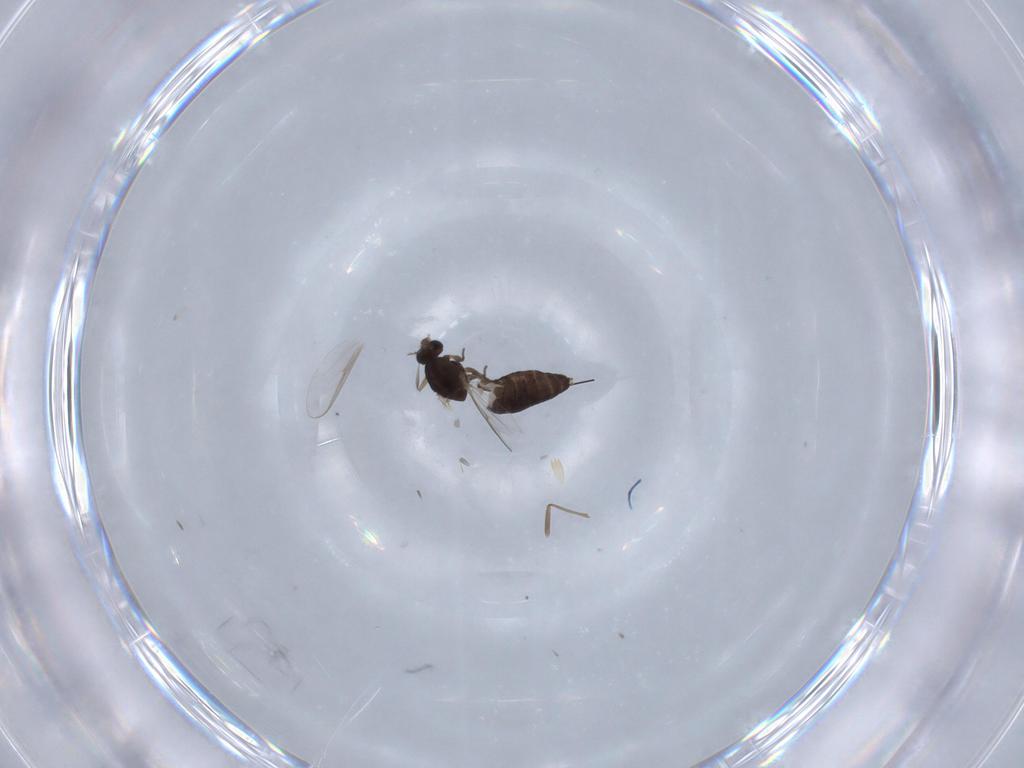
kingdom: Animalia
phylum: Arthropoda
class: Insecta
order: Diptera
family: Chironomidae
